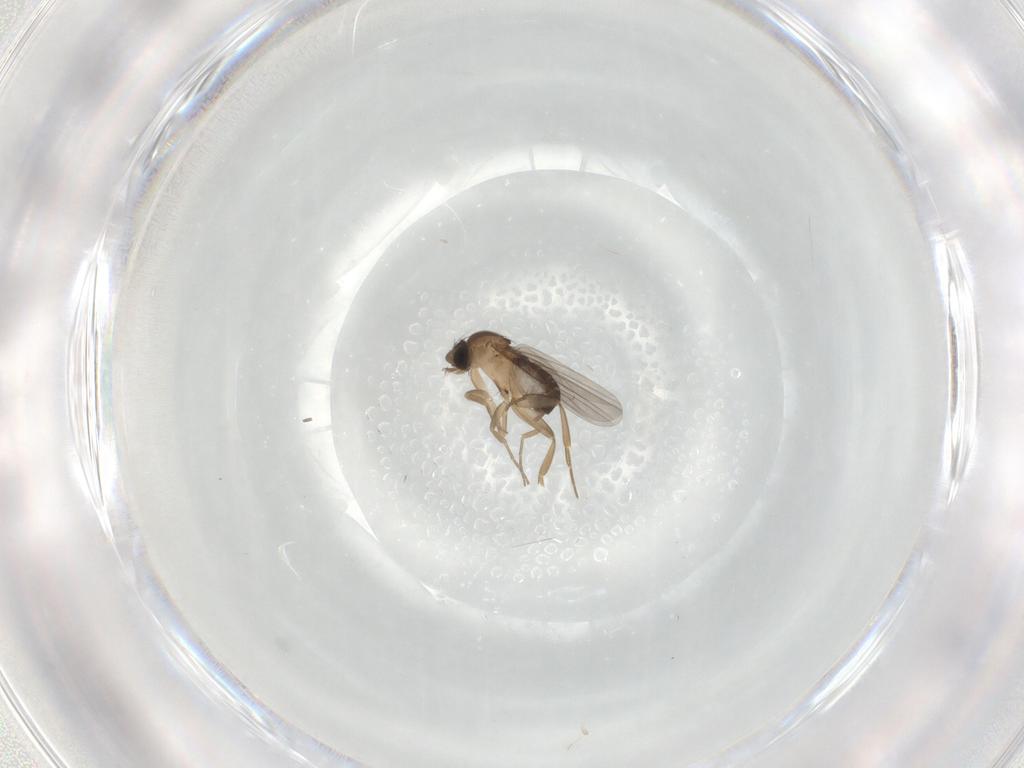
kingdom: Animalia
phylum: Arthropoda
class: Insecta
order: Diptera
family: Phoridae
